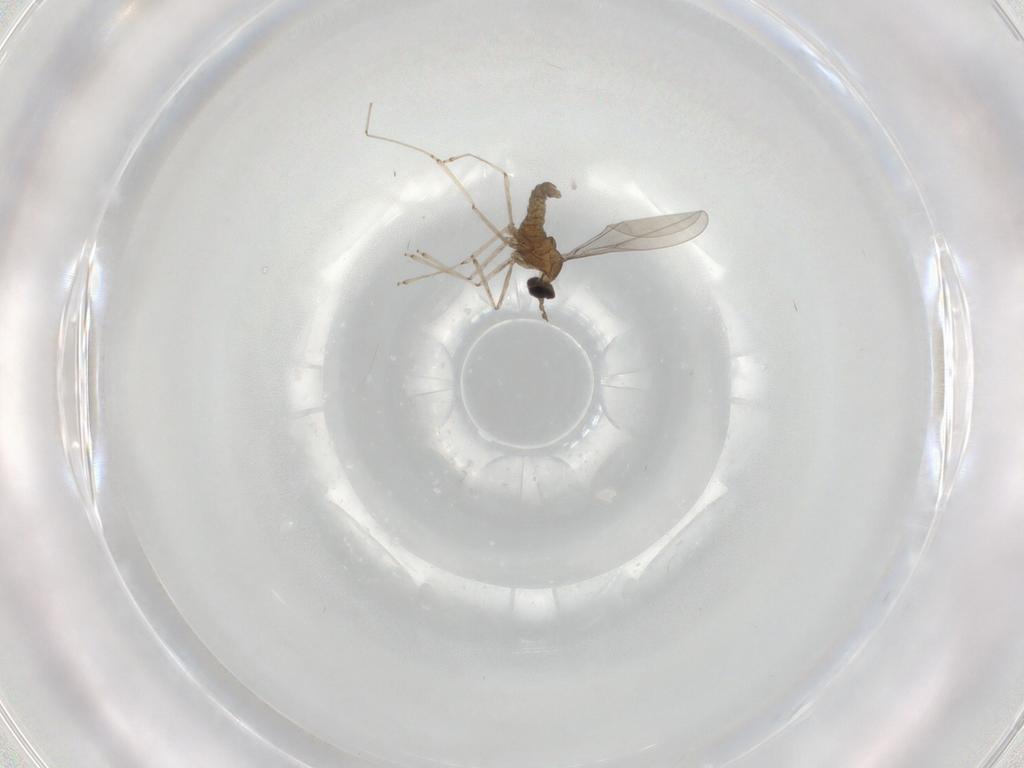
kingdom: Animalia
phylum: Arthropoda
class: Insecta
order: Diptera
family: Cecidomyiidae
